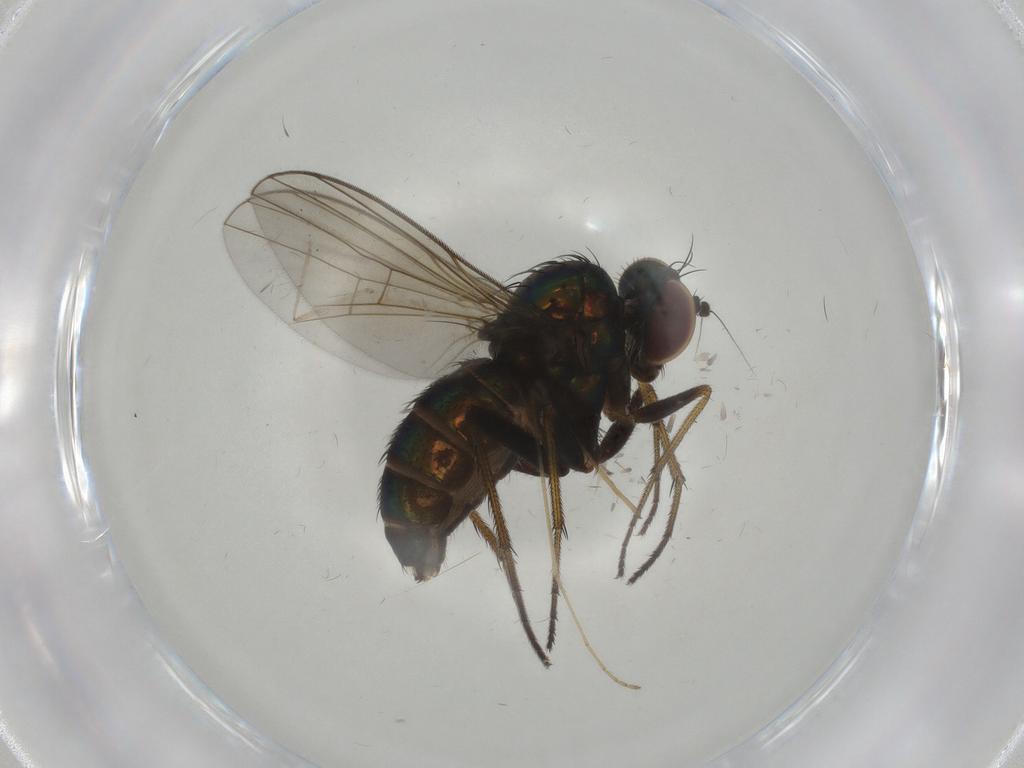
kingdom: Animalia
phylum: Arthropoda
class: Insecta
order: Diptera
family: Dolichopodidae
